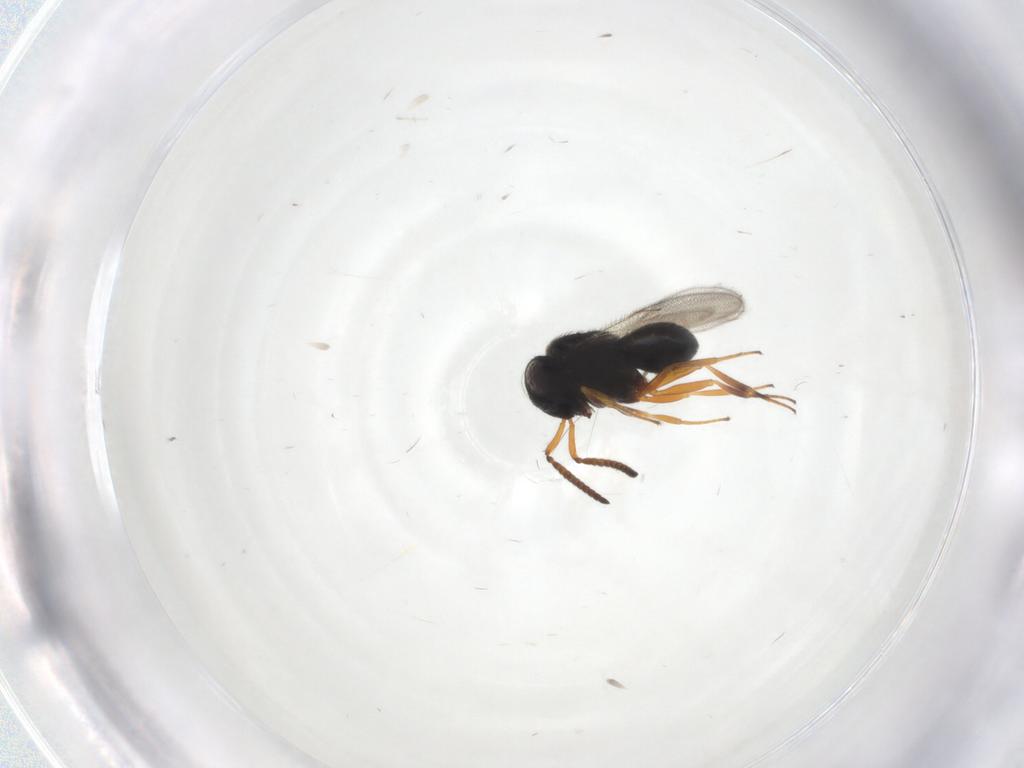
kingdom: Animalia
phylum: Arthropoda
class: Insecta
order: Hymenoptera
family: Scelionidae
